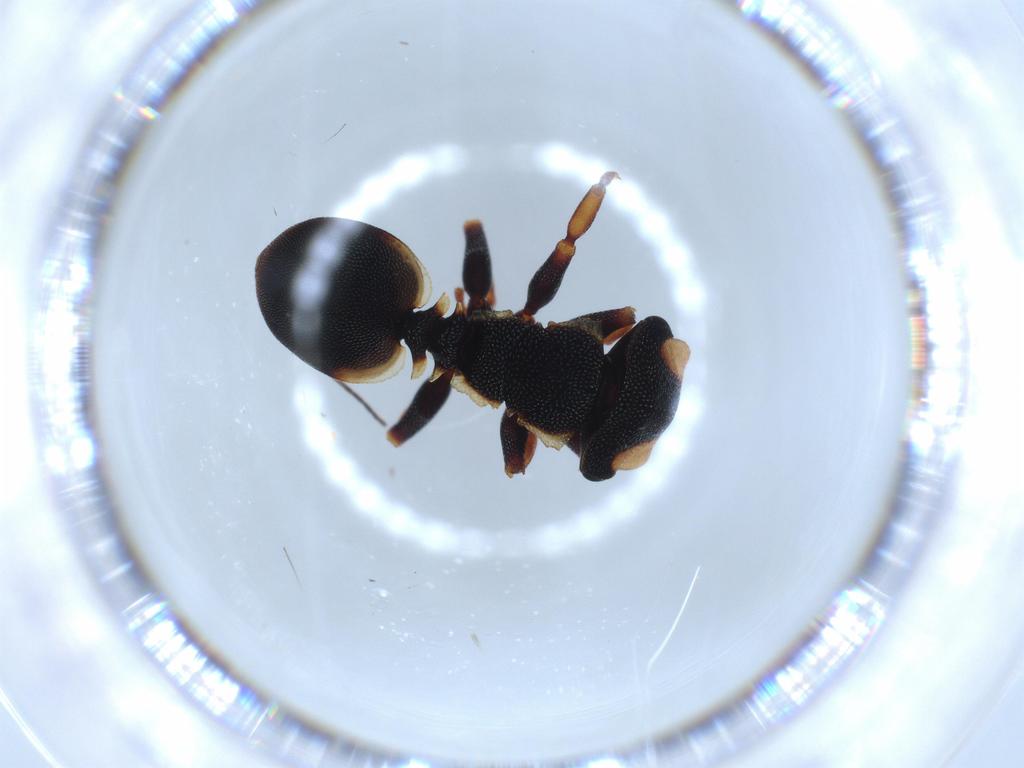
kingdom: Animalia
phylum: Arthropoda
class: Insecta
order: Hymenoptera
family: Formicidae
